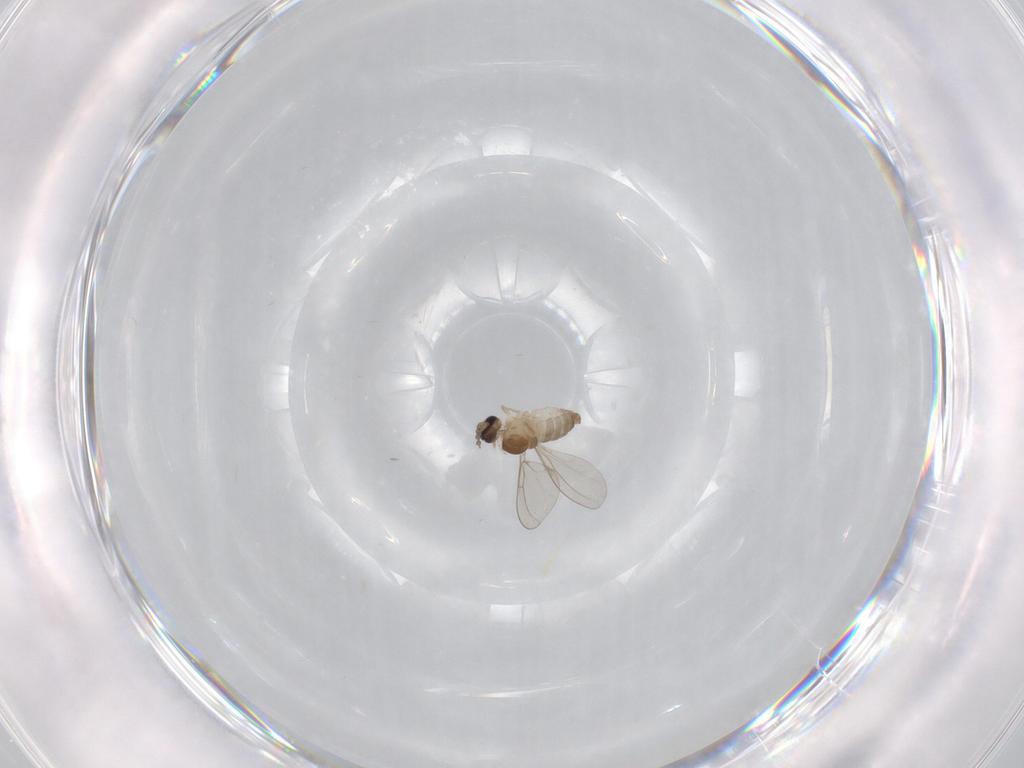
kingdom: Animalia
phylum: Arthropoda
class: Insecta
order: Diptera
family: Cecidomyiidae
